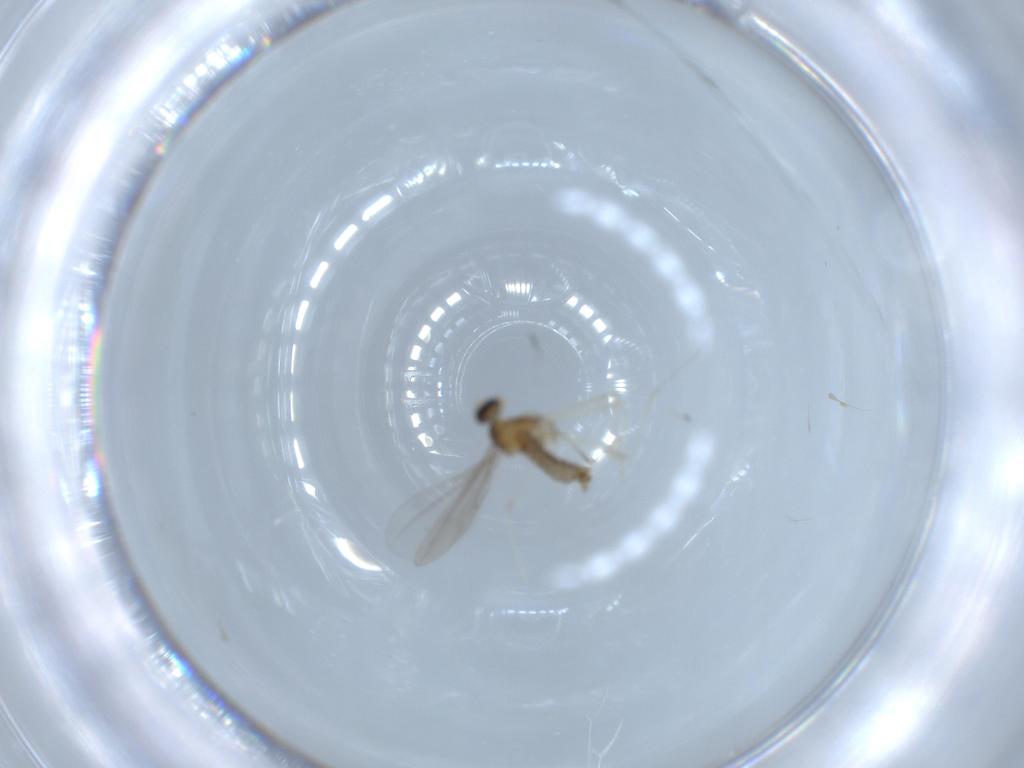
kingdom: Animalia
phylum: Arthropoda
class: Insecta
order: Diptera
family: Cecidomyiidae
